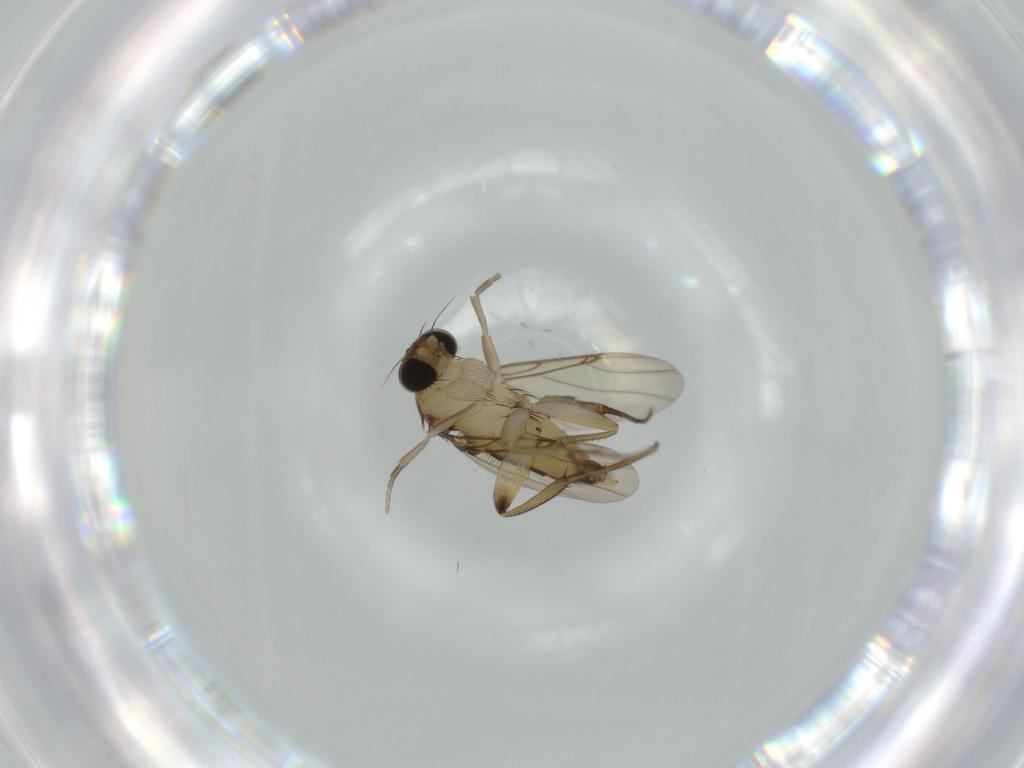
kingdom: Animalia
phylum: Arthropoda
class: Insecta
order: Diptera
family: Phoridae
